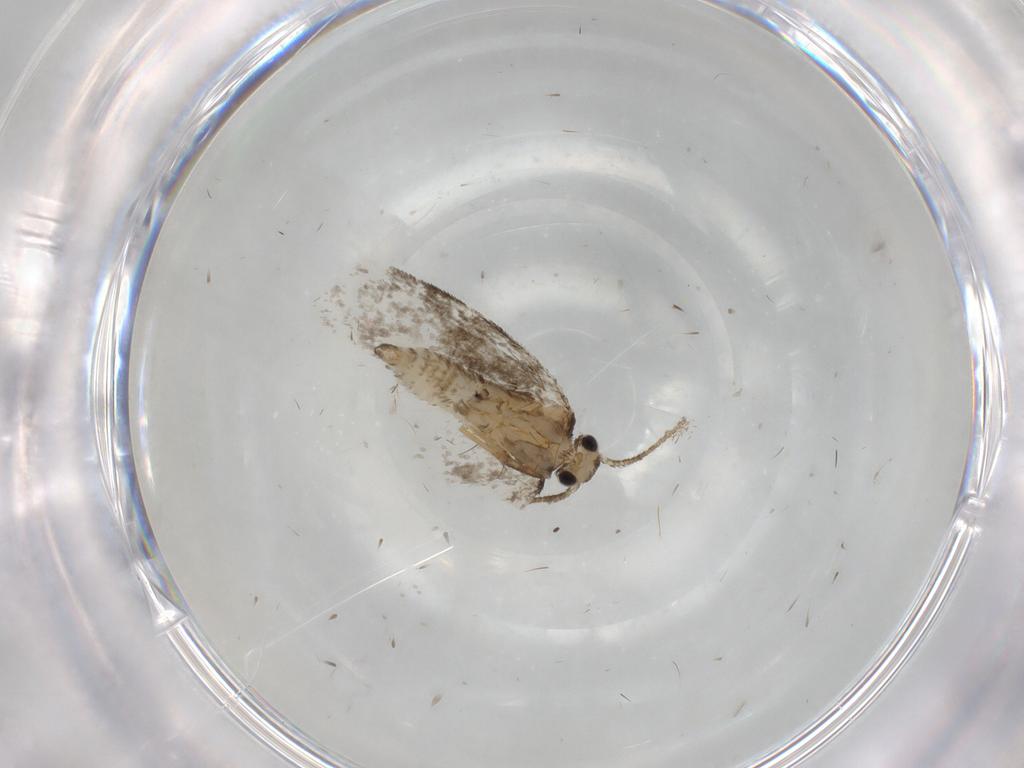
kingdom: Animalia
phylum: Arthropoda
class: Insecta
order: Lepidoptera
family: Psychidae
